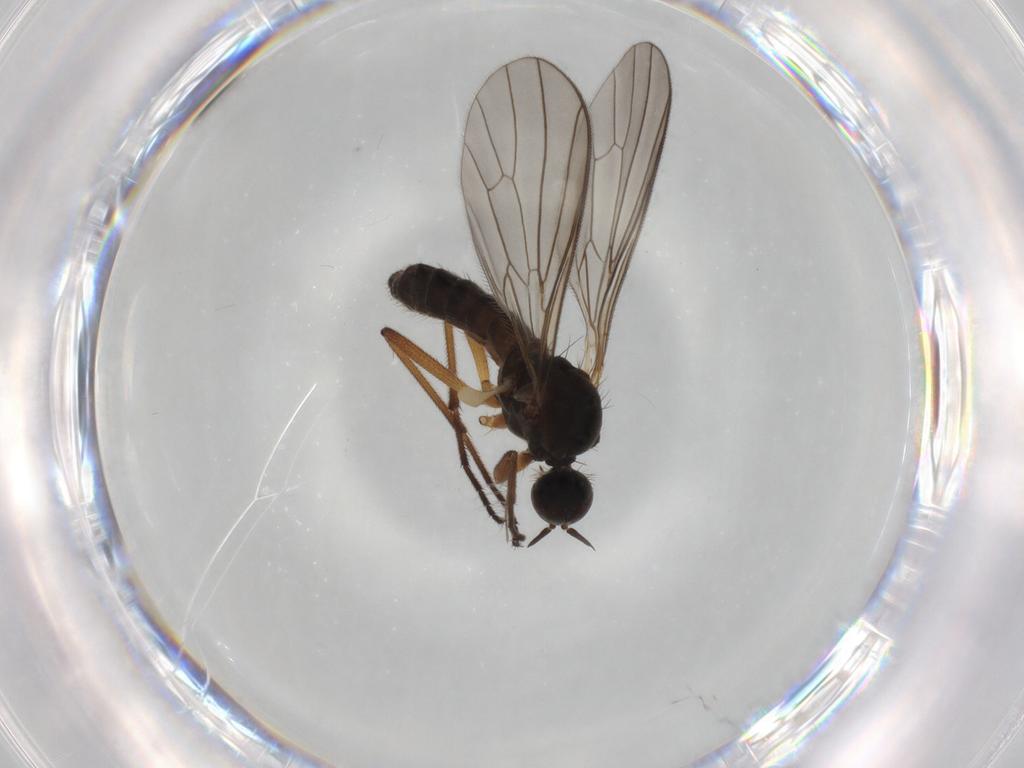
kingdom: Animalia
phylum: Arthropoda
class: Insecta
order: Diptera
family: Empididae
